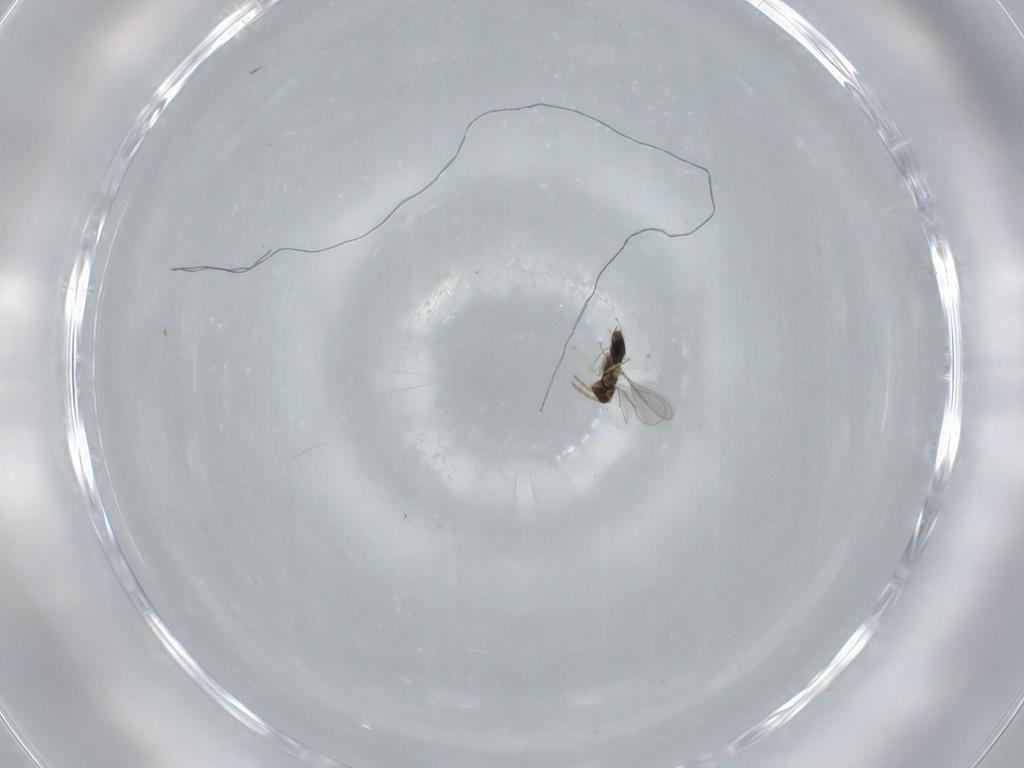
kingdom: Animalia
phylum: Arthropoda
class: Insecta
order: Hymenoptera
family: Aphelinidae
